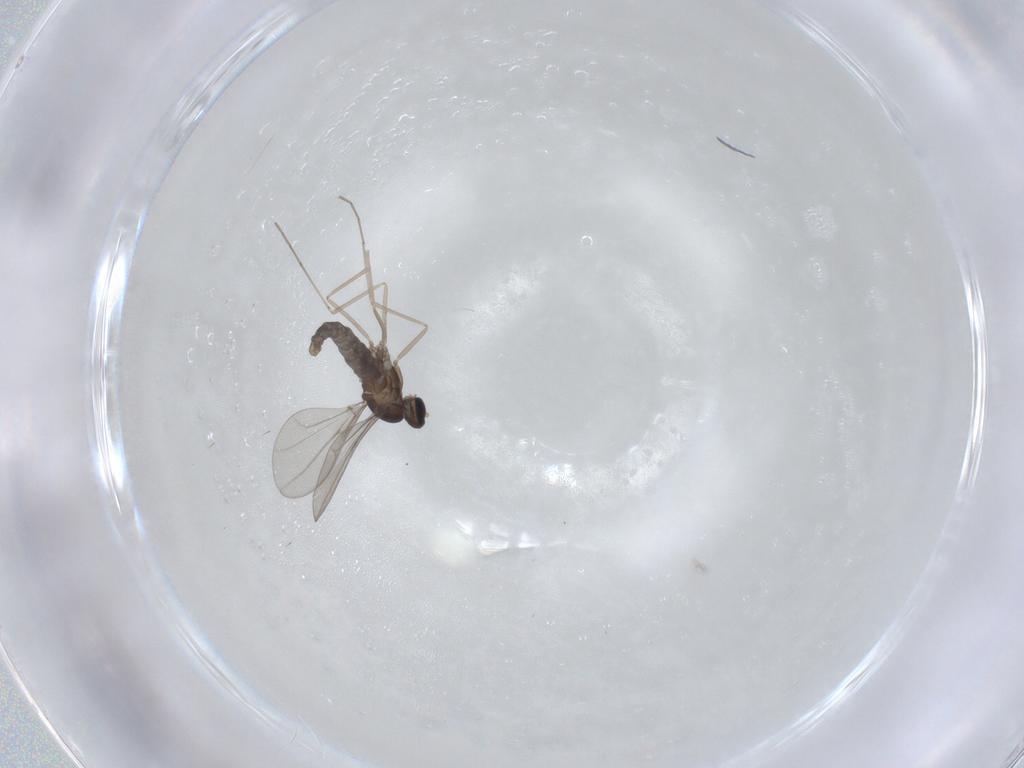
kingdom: Animalia
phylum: Arthropoda
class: Insecta
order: Diptera
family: Cecidomyiidae
